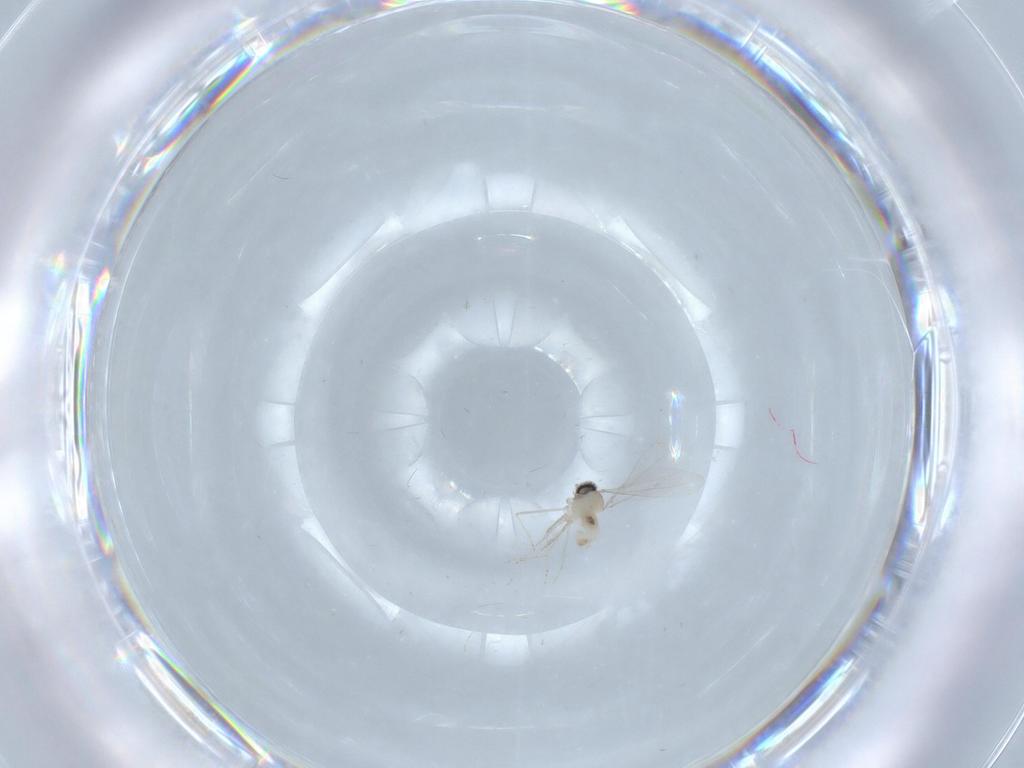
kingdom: Animalia
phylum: Arthropoda
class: Insecta
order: Diptera
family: Cecidomyiidae
